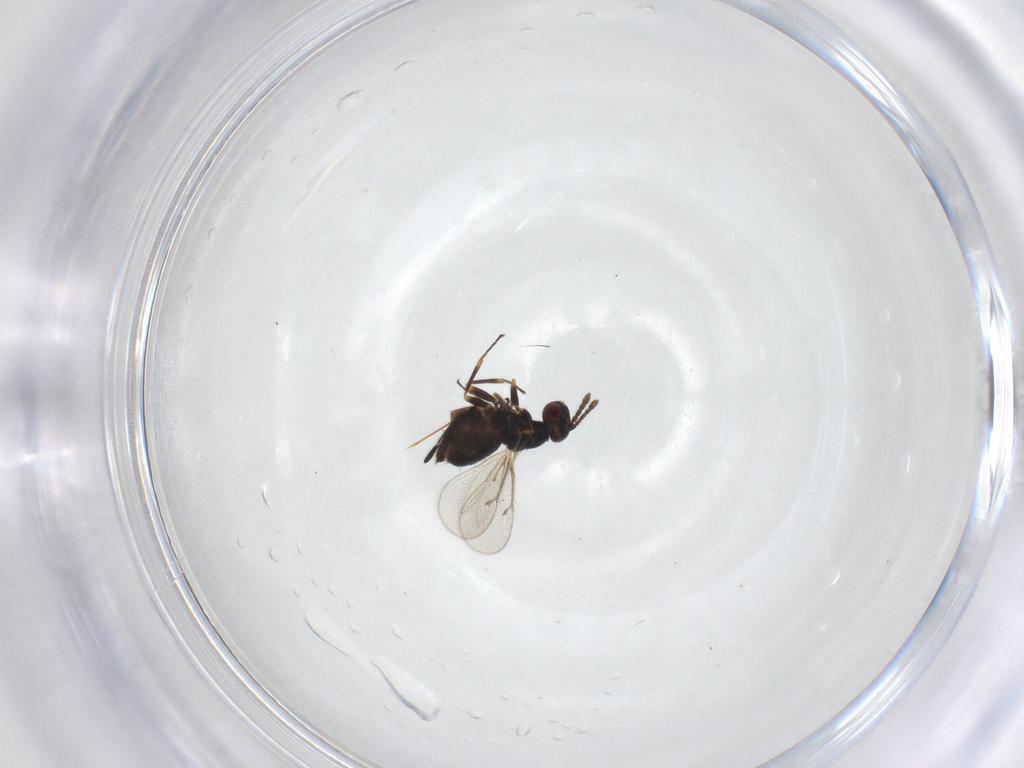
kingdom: Animalia
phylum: Arthropoda
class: Insecta
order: Hymenoptera
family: Eulophidae
